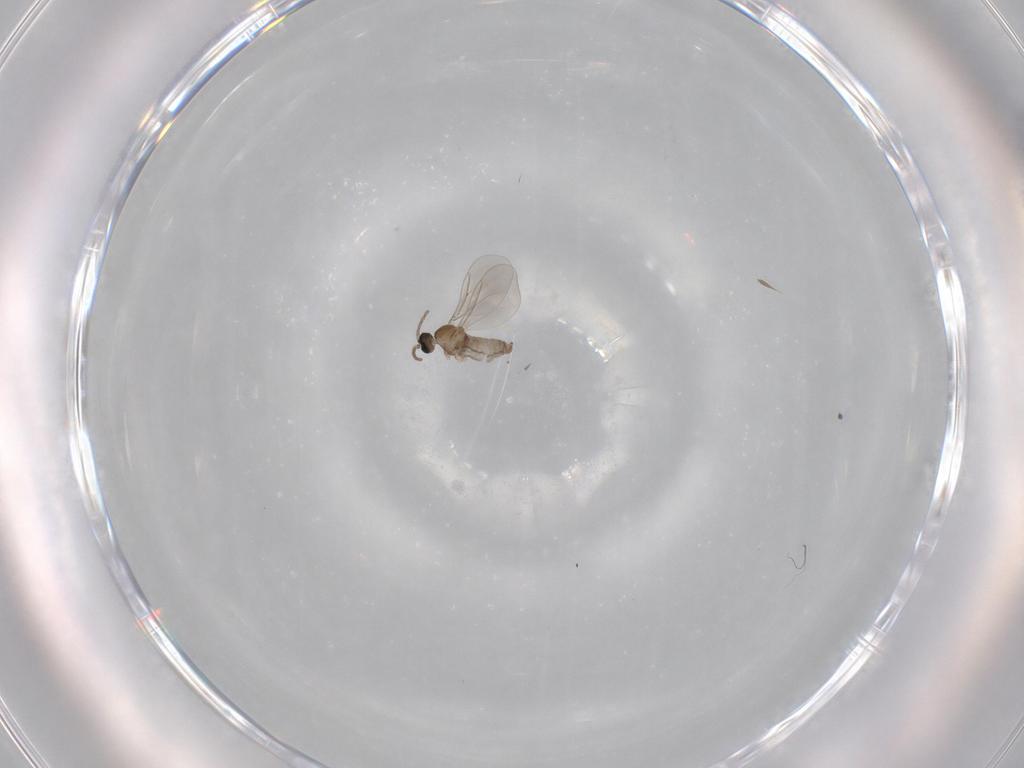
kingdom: Animalia
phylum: Arthropoda
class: Insecta
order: Diptera
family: Cecidomyiidae
